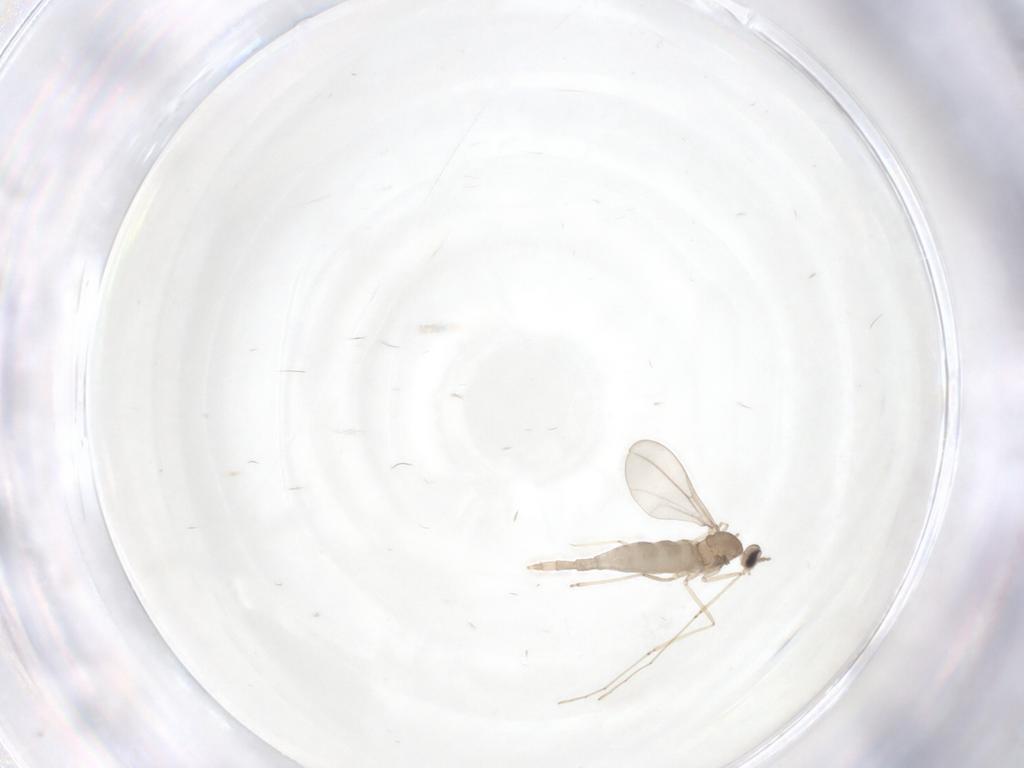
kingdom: Animalia
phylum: Arthropoda
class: Insecta
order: Diptera
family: Cecidomyiidae
